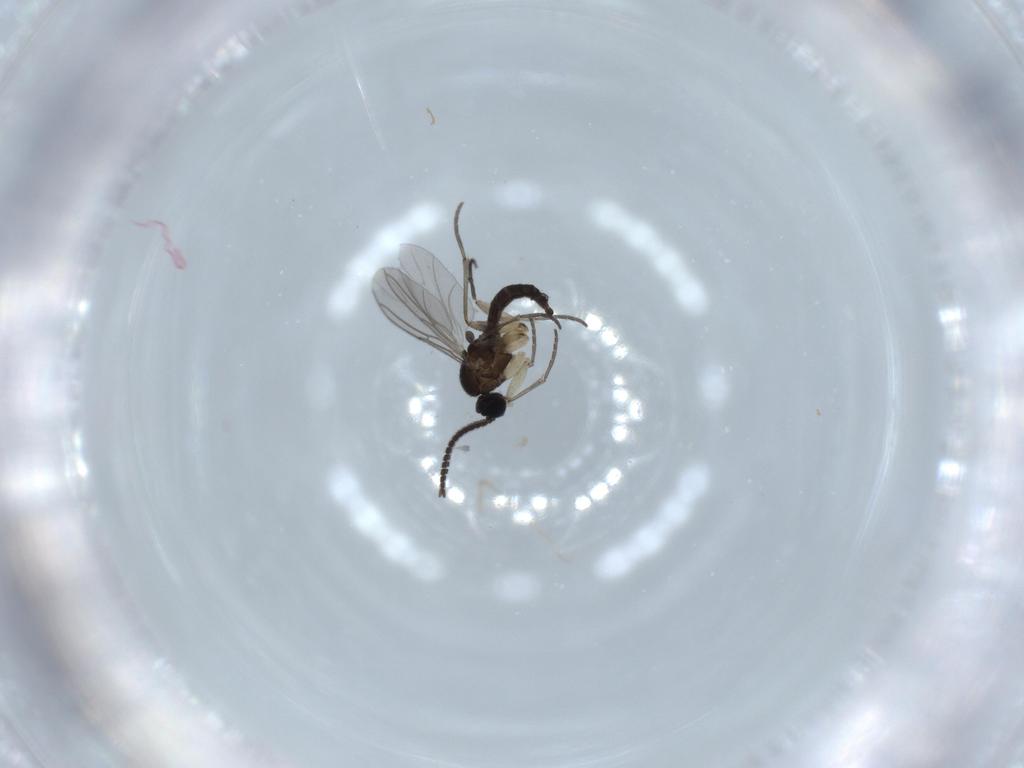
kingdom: Animalia
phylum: Arthropoda
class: Insecta
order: Diptera
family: Sciaridae
